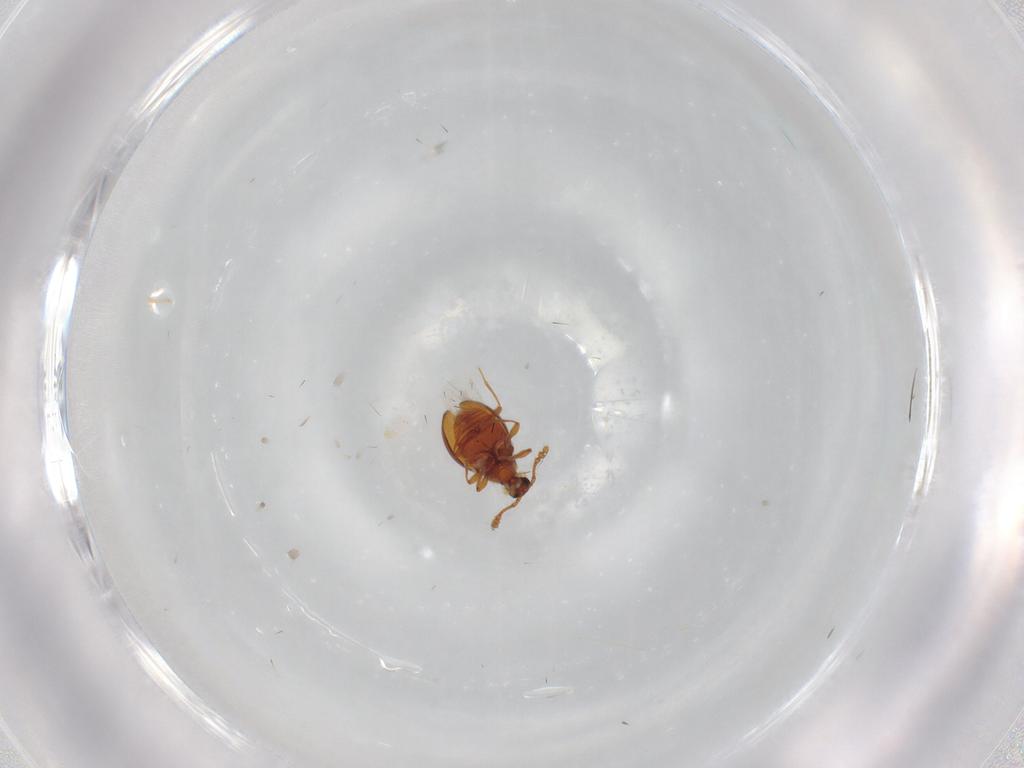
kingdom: Animalia
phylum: Arthropoda
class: Insecta
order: Coleoptera
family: Staphylinidae
